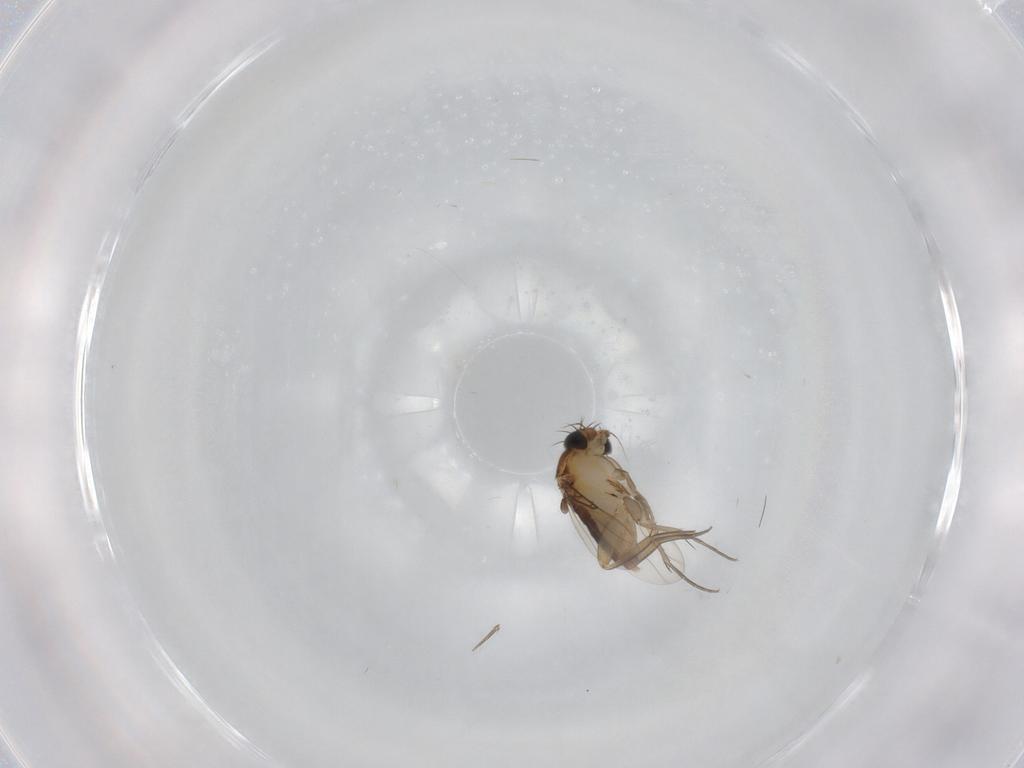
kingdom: Animalia
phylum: Arthropoda
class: Insecta
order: Diptera
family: Phoridae
